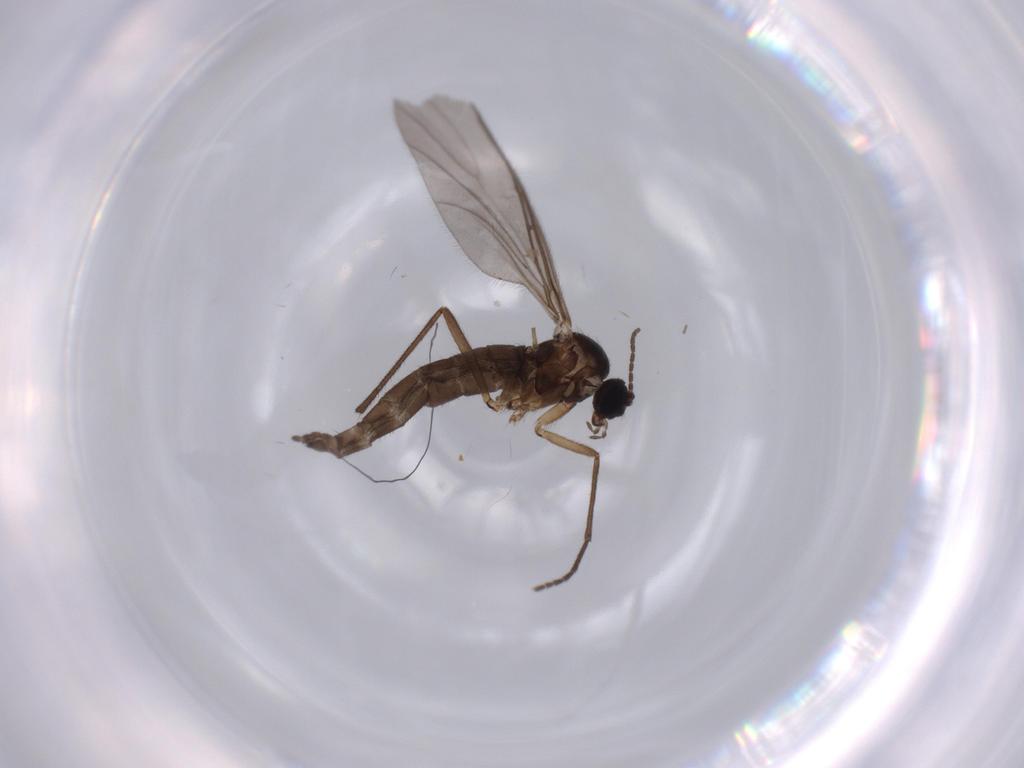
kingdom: Animalia
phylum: Arthropoda
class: Insecta
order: Diptera
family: Sciaridae
